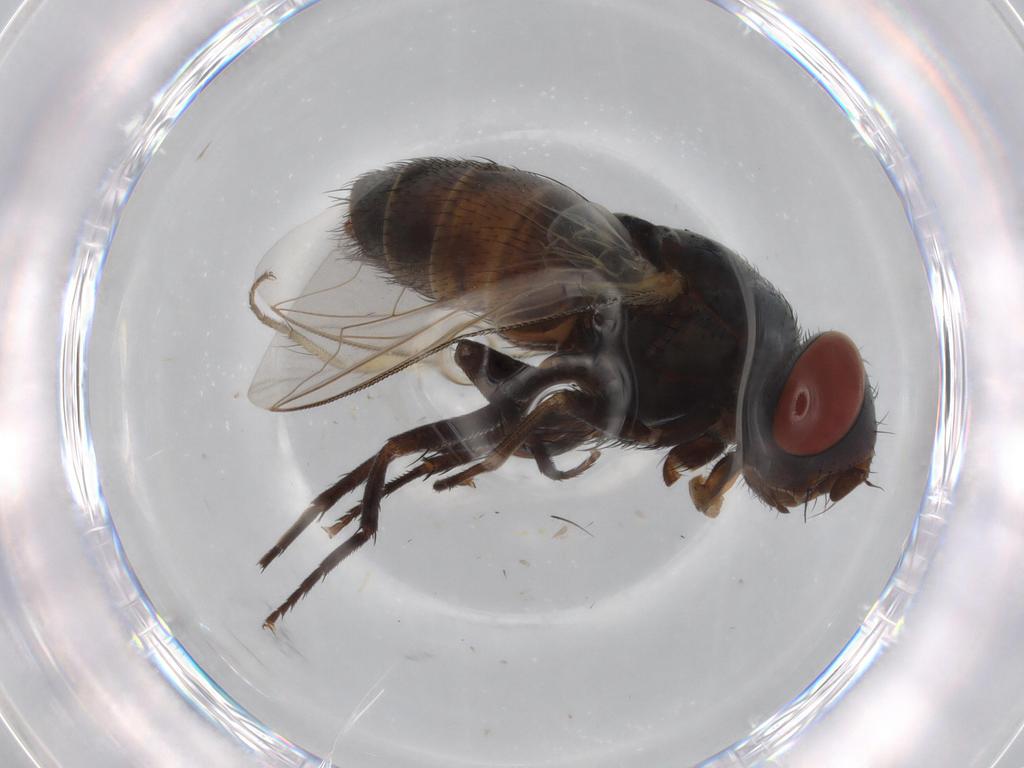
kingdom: Animalia
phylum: Arthropoda
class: Insecta
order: Diptera
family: Sarcophagidae
